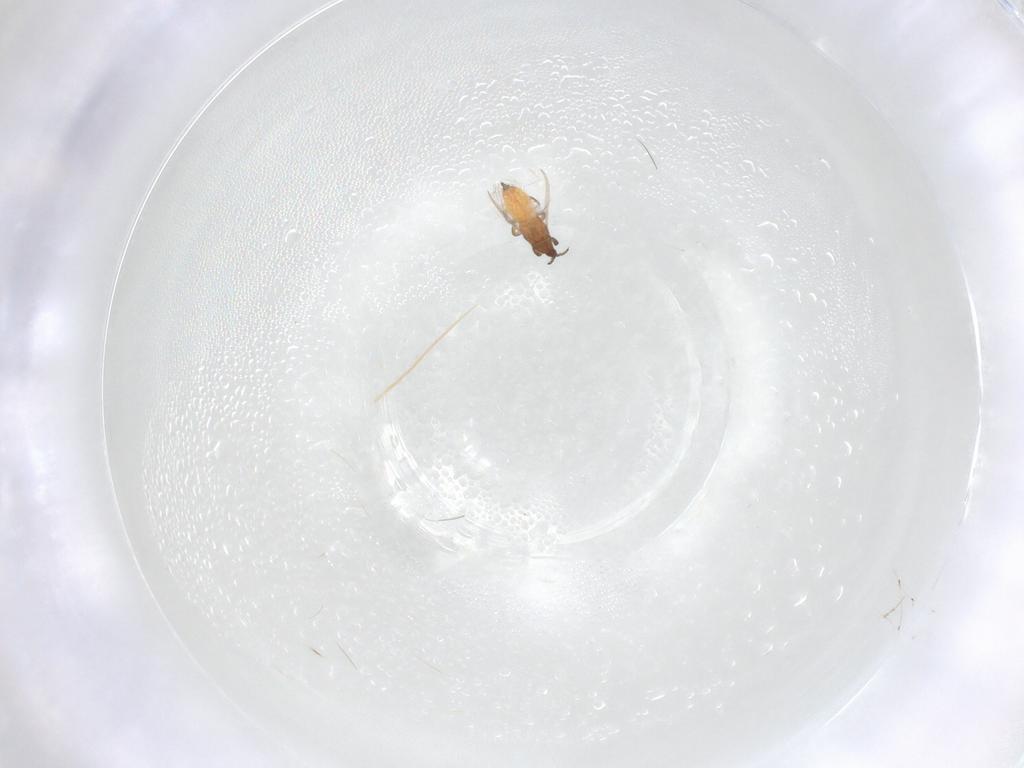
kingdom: Animalia
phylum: Arthropoda
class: Insecta
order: Thysanoptera
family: Thripidae
